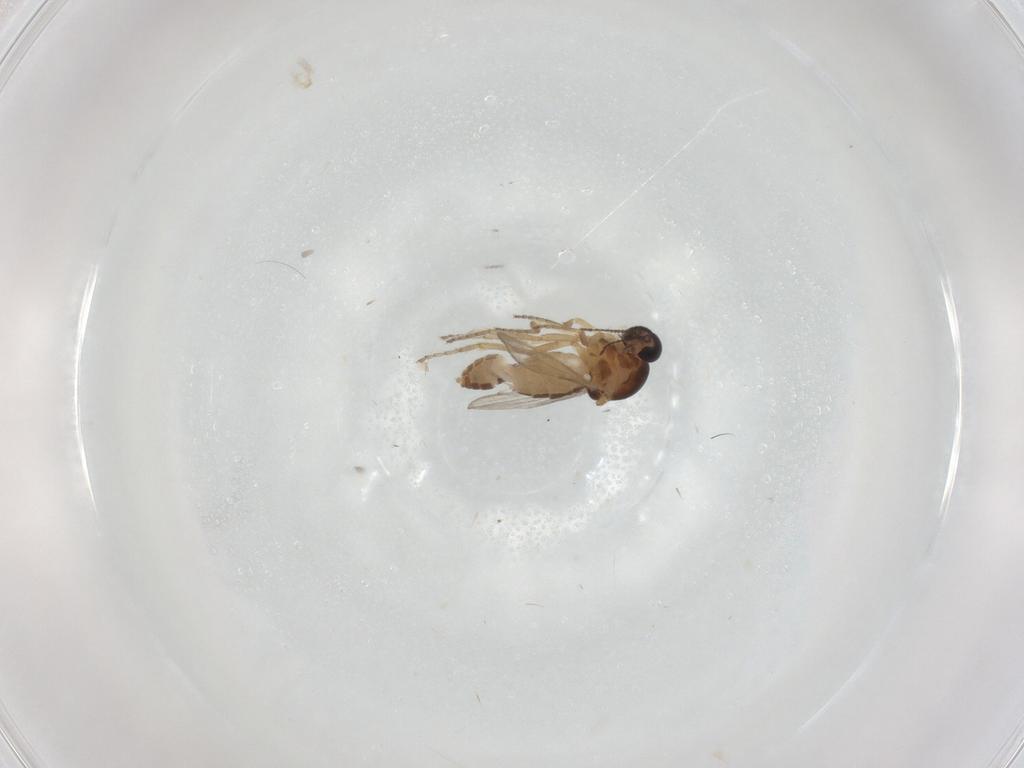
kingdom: Animalia
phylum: Arthropoda
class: Insecta
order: Diptera
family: Ceratopogonidae
